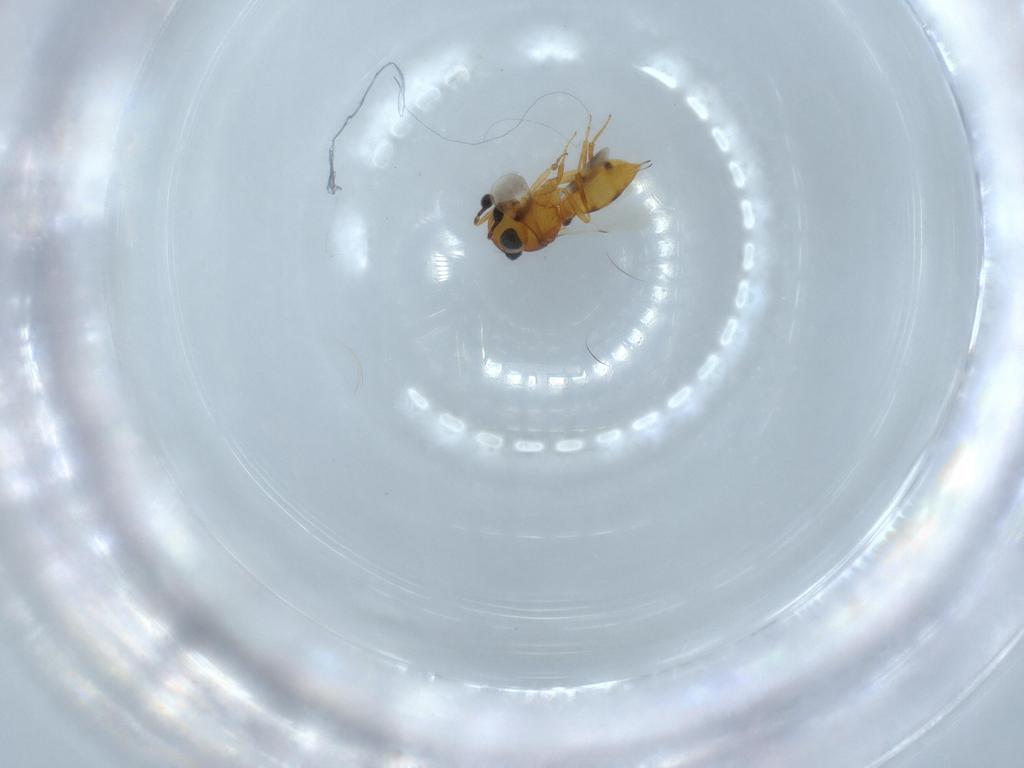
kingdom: Animalia
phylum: Arthropoda
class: Insecta
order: Hymenoptera
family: Scelionidae
